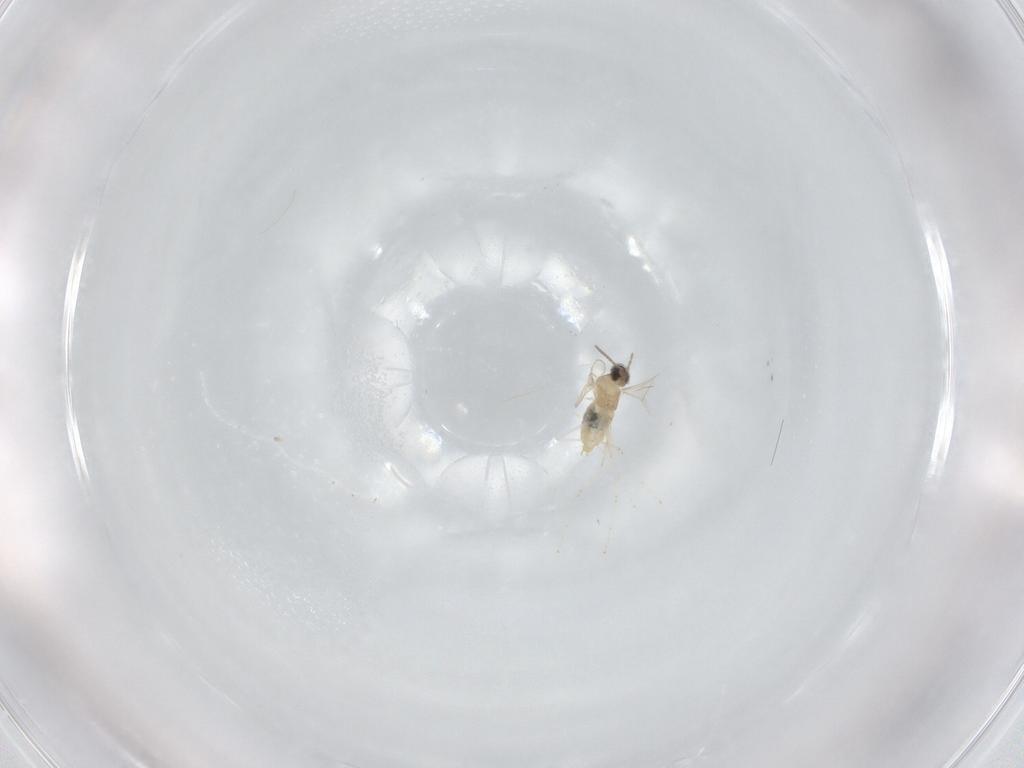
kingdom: Animalia
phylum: Arthropoda
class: Insecta
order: Diptera
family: Cecidomyiidae
